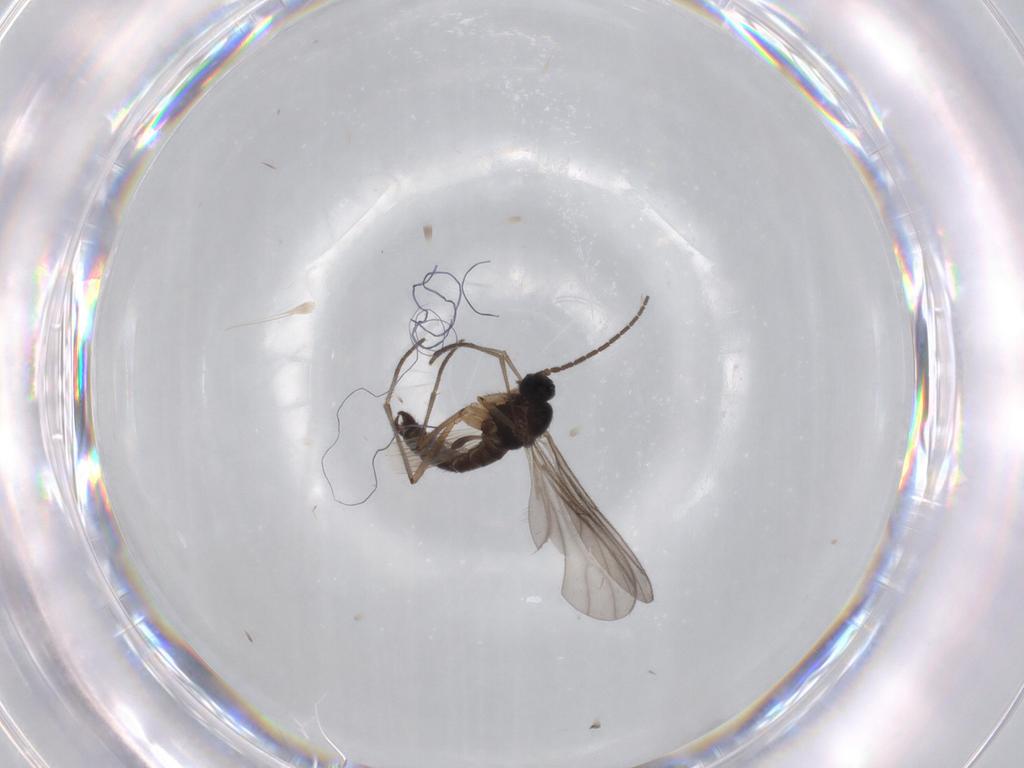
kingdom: Animalia
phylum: Arthropoda
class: Insecta
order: Diptera
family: Sciaridae
